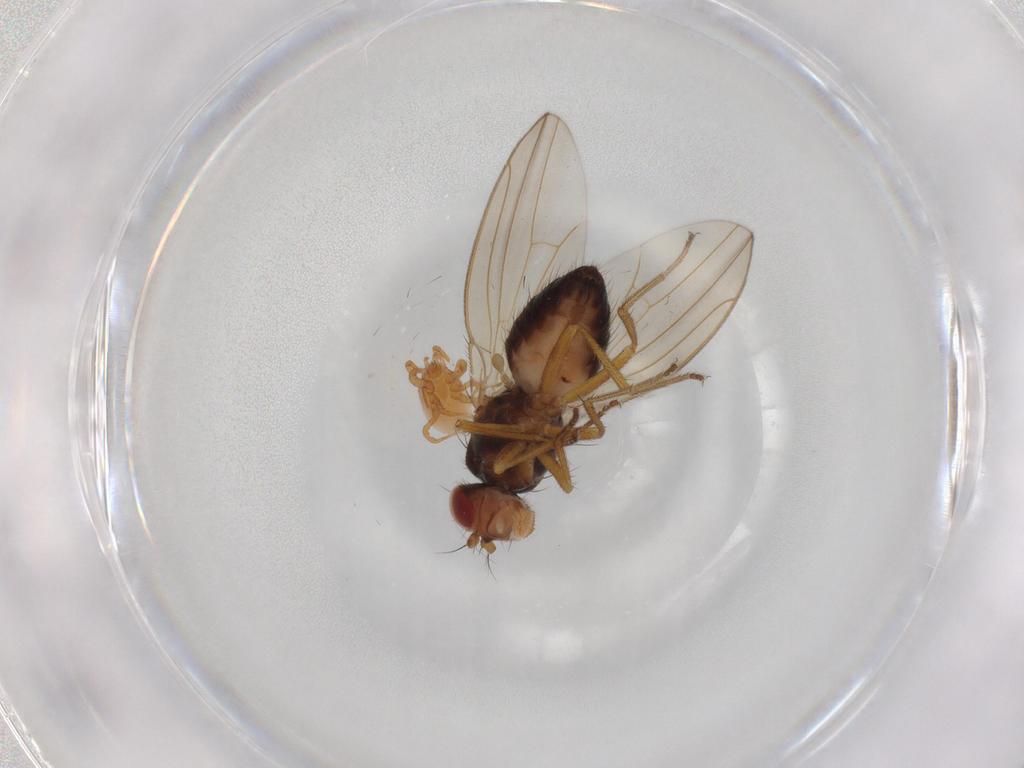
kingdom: Animalia
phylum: Arthropoda
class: Insecta
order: Diptera
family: Drosophilidae
